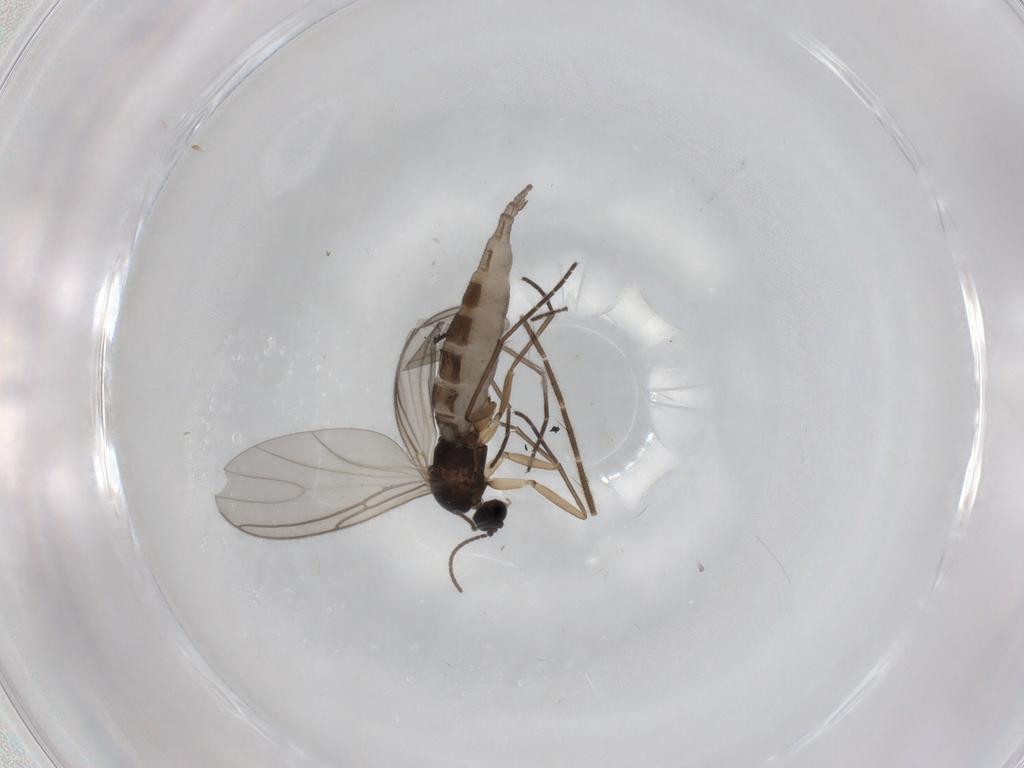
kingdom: Animalia
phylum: Arthropoda
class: Insecta
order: Diptera
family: Sciaridae
